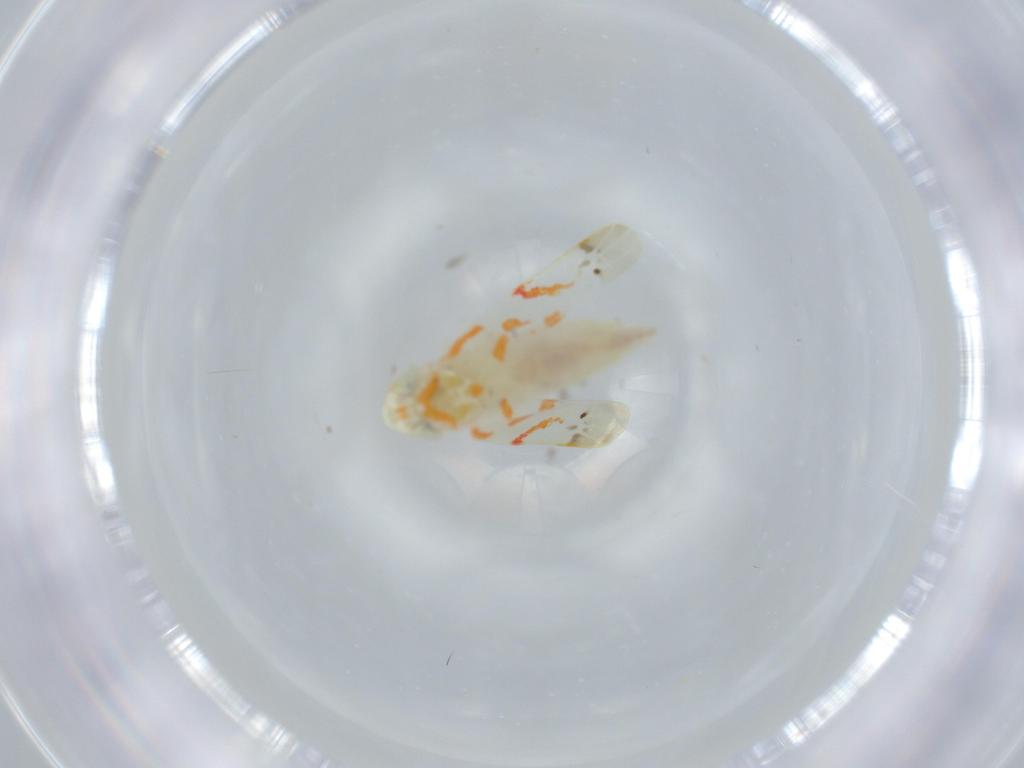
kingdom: Animalia
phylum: Arthropoda
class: Insecta
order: Hemiptera
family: Cicadellidae
